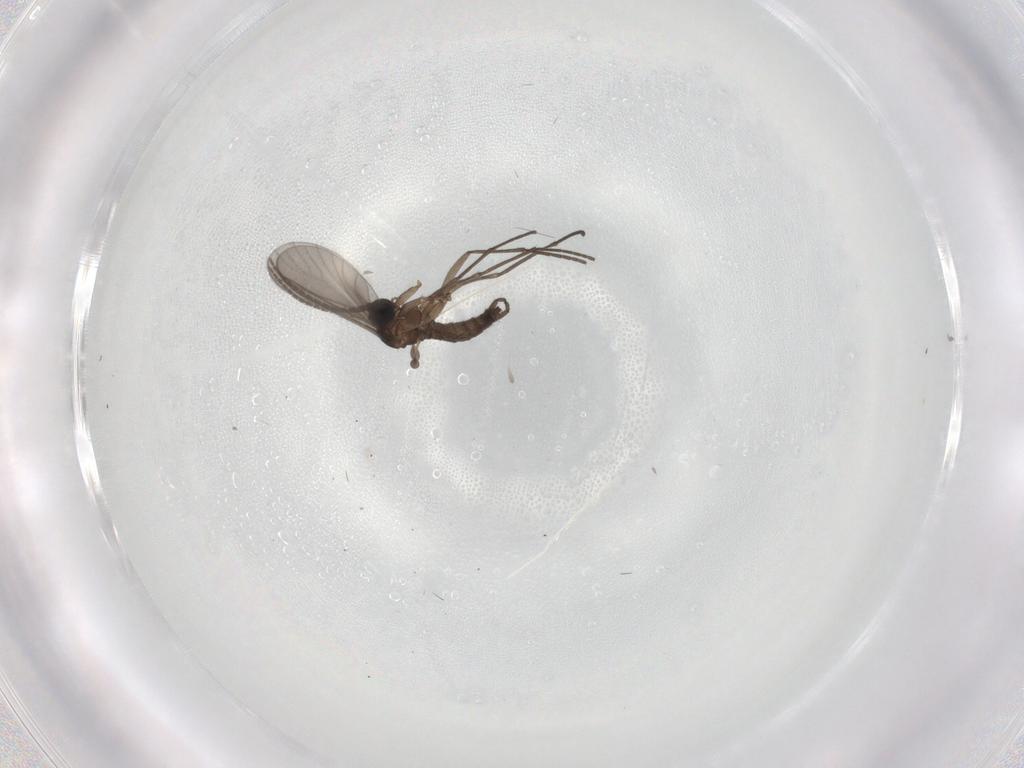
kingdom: Animalia
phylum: Arthropoda
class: Insecta
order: Diptera
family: Sciaridae
